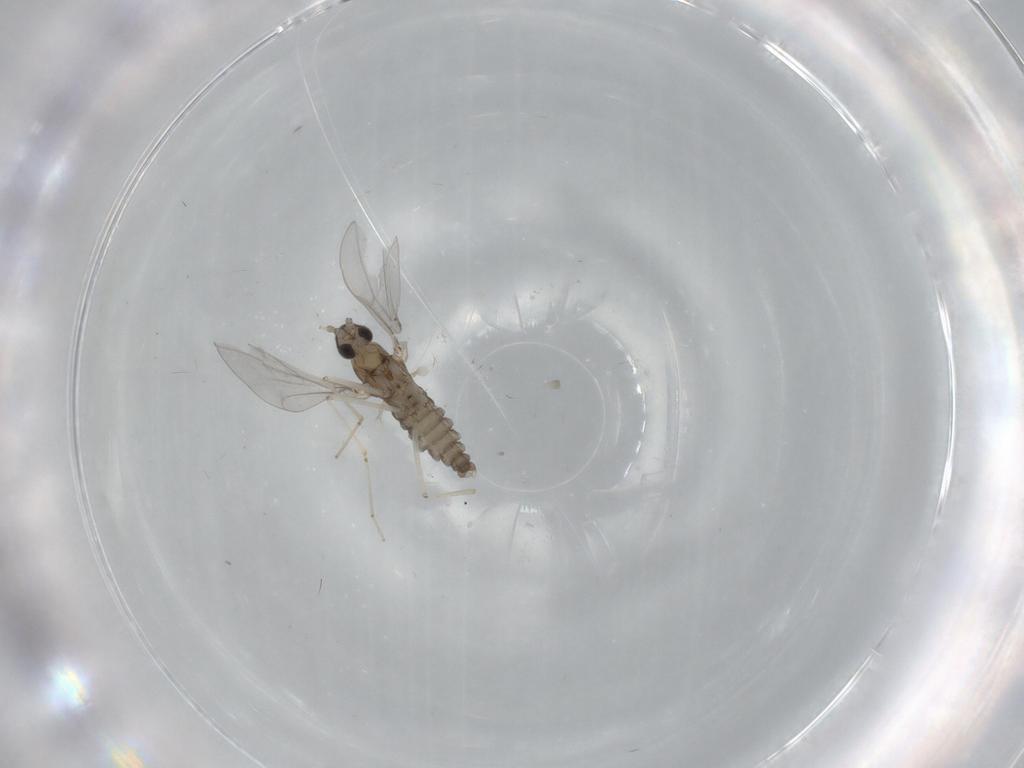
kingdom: Animalia
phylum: Arthropoda
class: Insecta
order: Diptera
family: Cecidomyiidae
